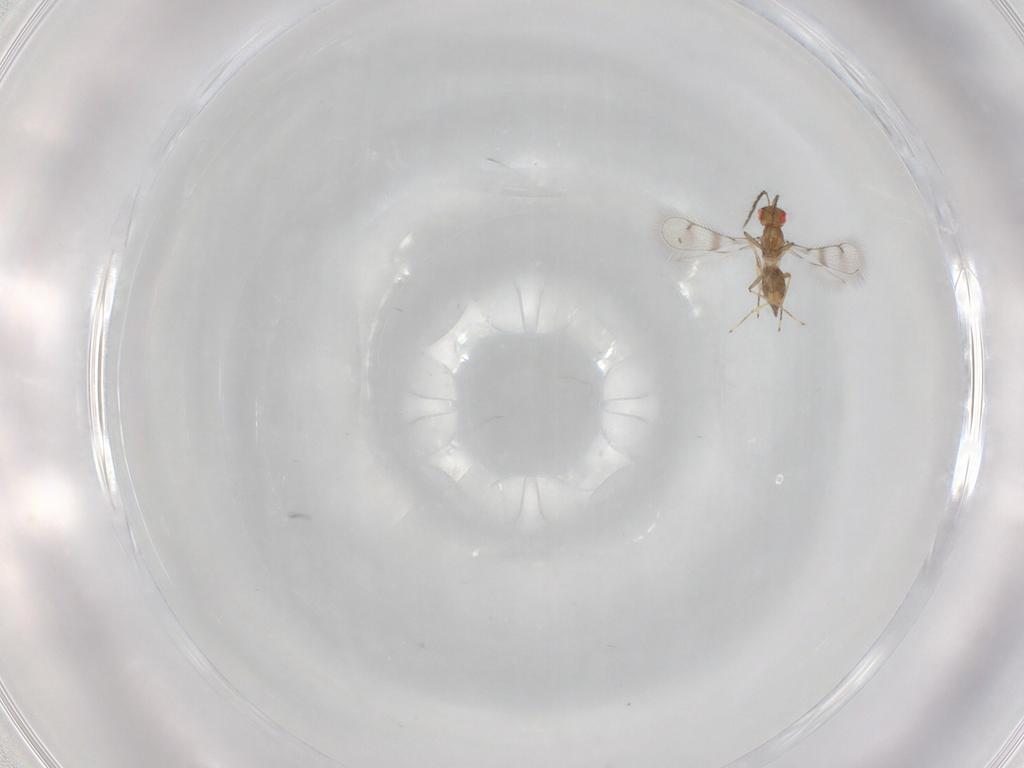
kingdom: Animalia
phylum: Arthropoda
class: Insecta
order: Hymenoptera
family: Eulophidae
